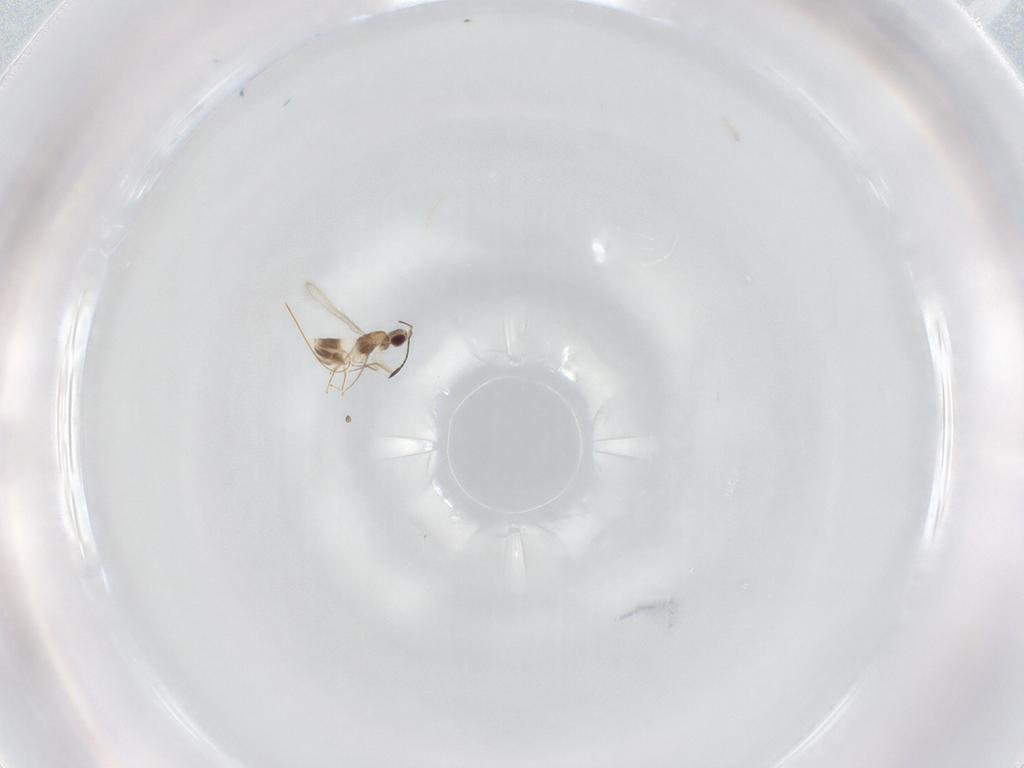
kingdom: Animalia
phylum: Arthropoda
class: Insecta
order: Hymenoptera
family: Mymaridae
